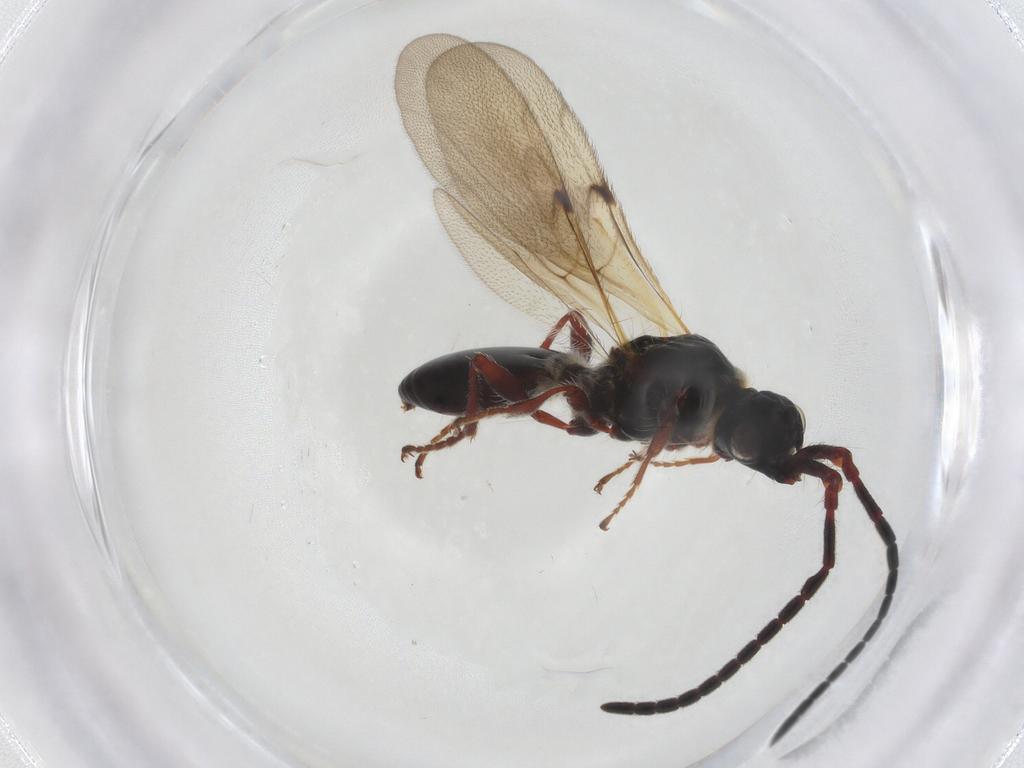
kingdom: Animalia
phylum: Arthropoda
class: Insecta
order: Hymenoptera
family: Diapriidae
